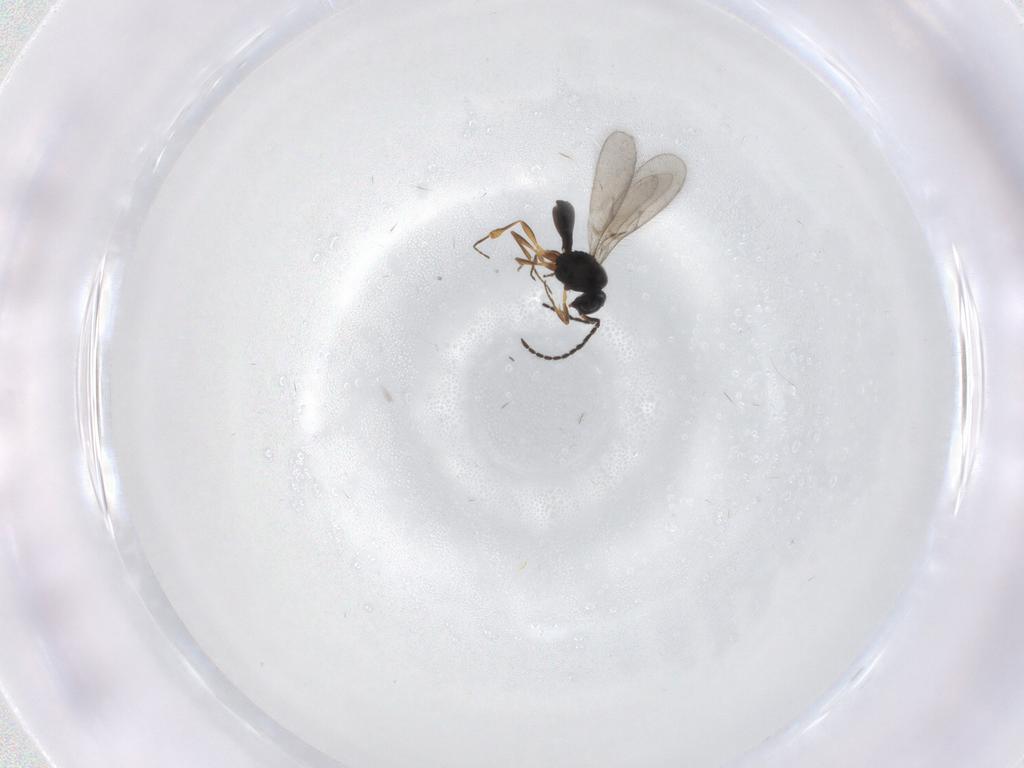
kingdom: Animalia
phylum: Arthropoda
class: Insecta
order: Hymenoptera
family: Scelionidae
